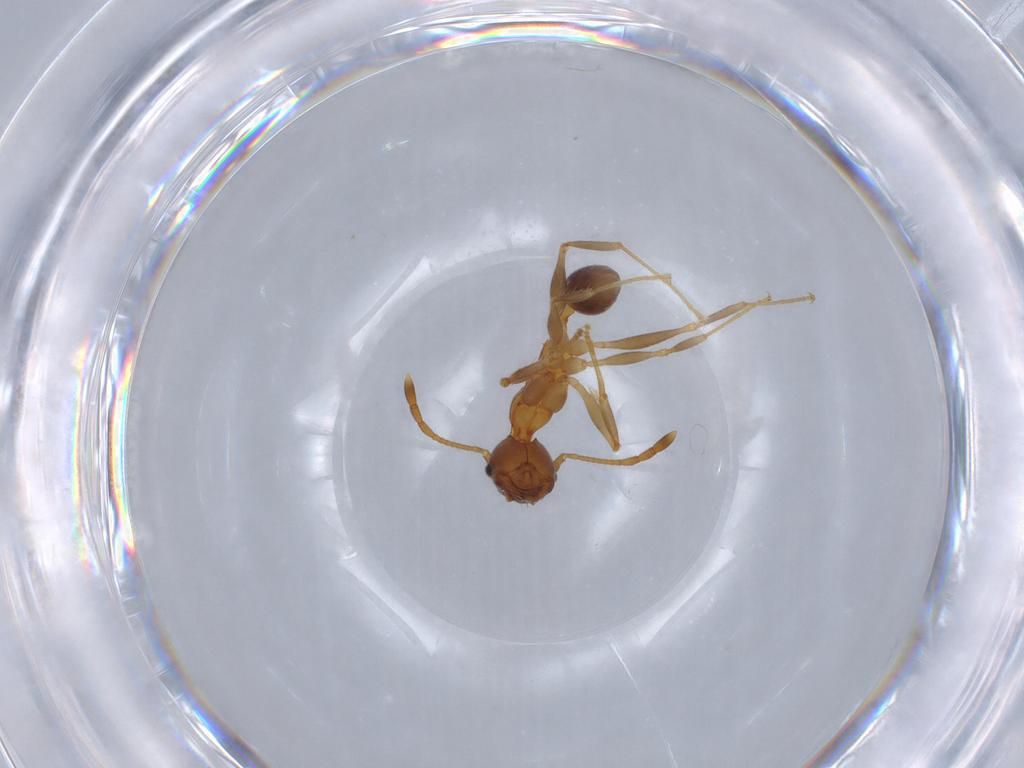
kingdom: Animalia
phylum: Arthropoda
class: Insecta
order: Hymenoptera
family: Formicidae
